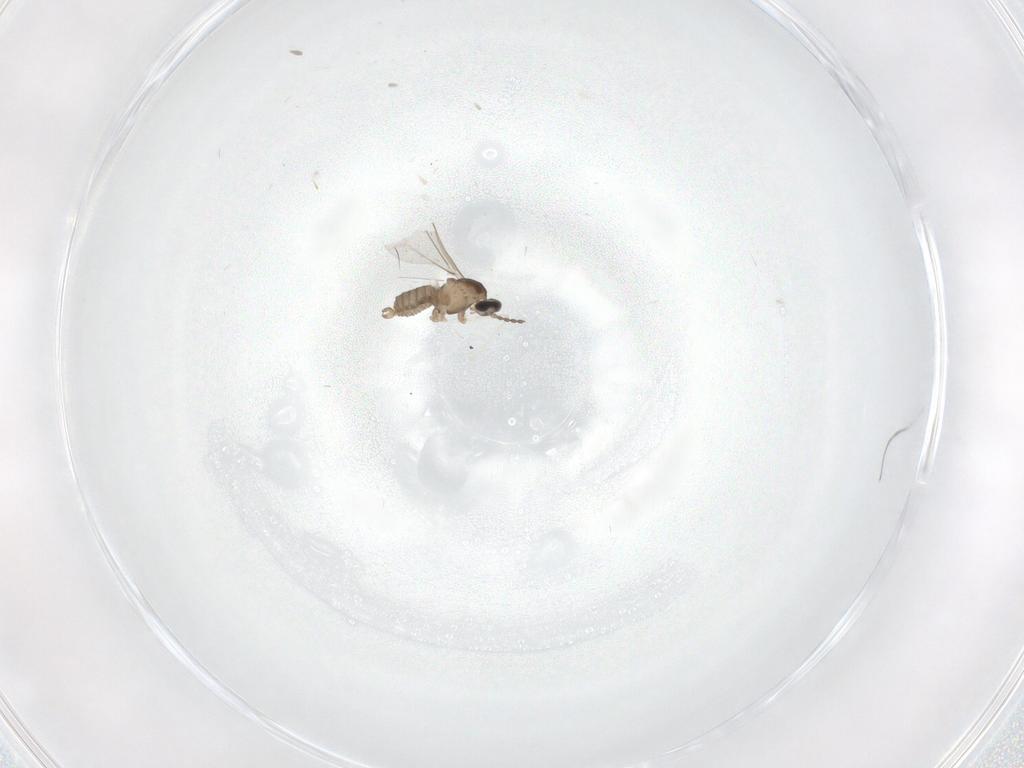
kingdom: Animalia
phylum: Arthropoda
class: Insecta
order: Diptera
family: Cecidomyiidae
